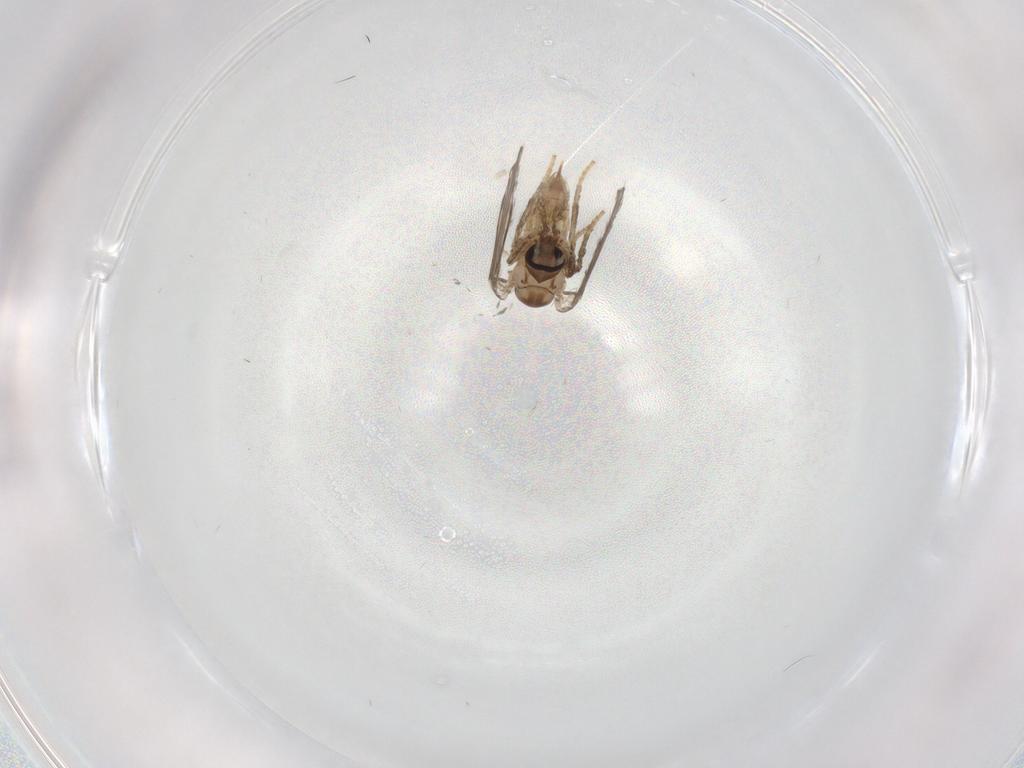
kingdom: Animalia
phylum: Arthropoda
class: Insecta
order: Diptera
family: Psychodidae
